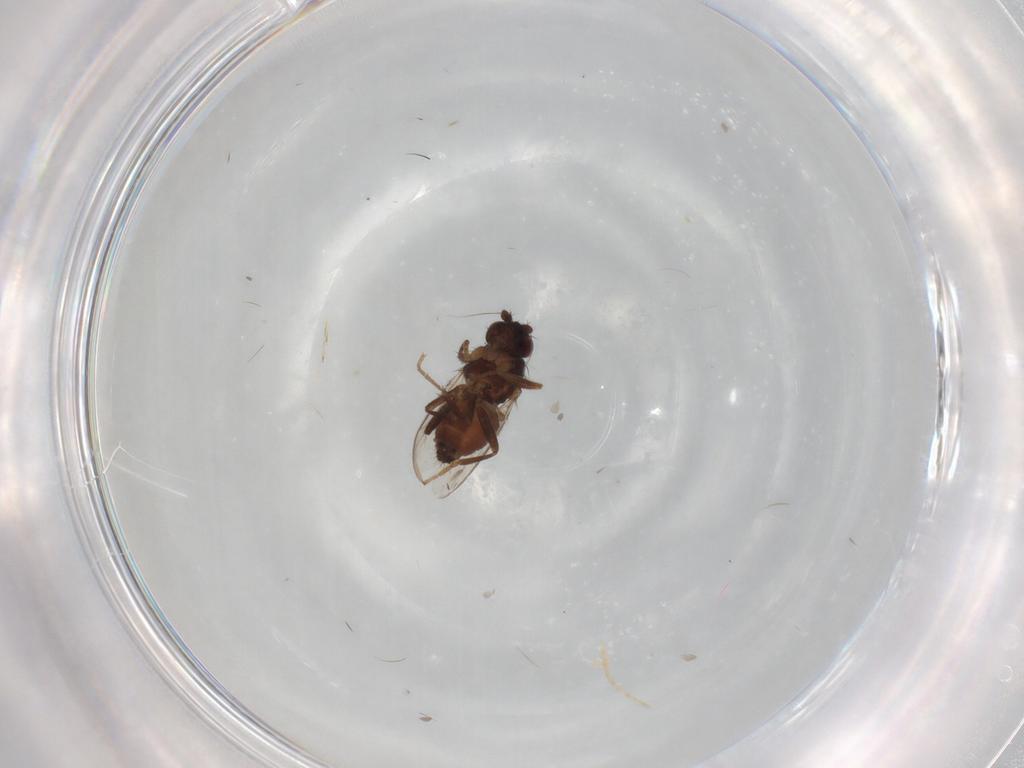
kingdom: Animalia
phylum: Arthropoda
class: Insecta
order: Diptera
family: Sphaeroceridae
